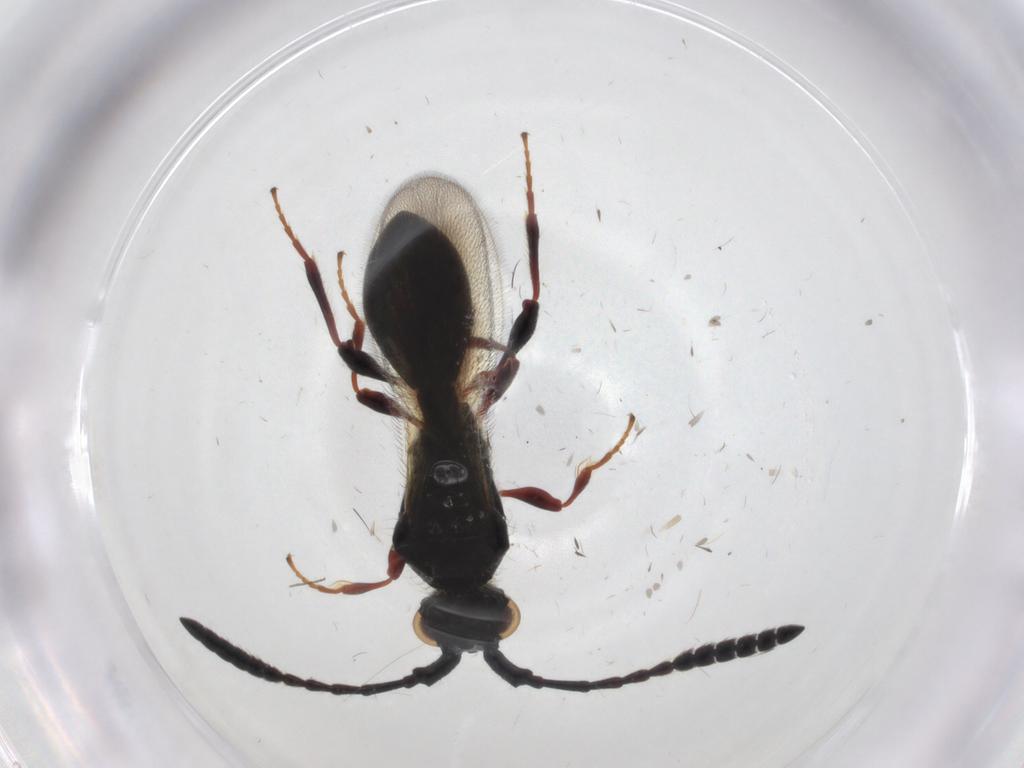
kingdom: Animalia
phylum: Arthropoda
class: Insecta
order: Hymenoptera
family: Diapriidae
